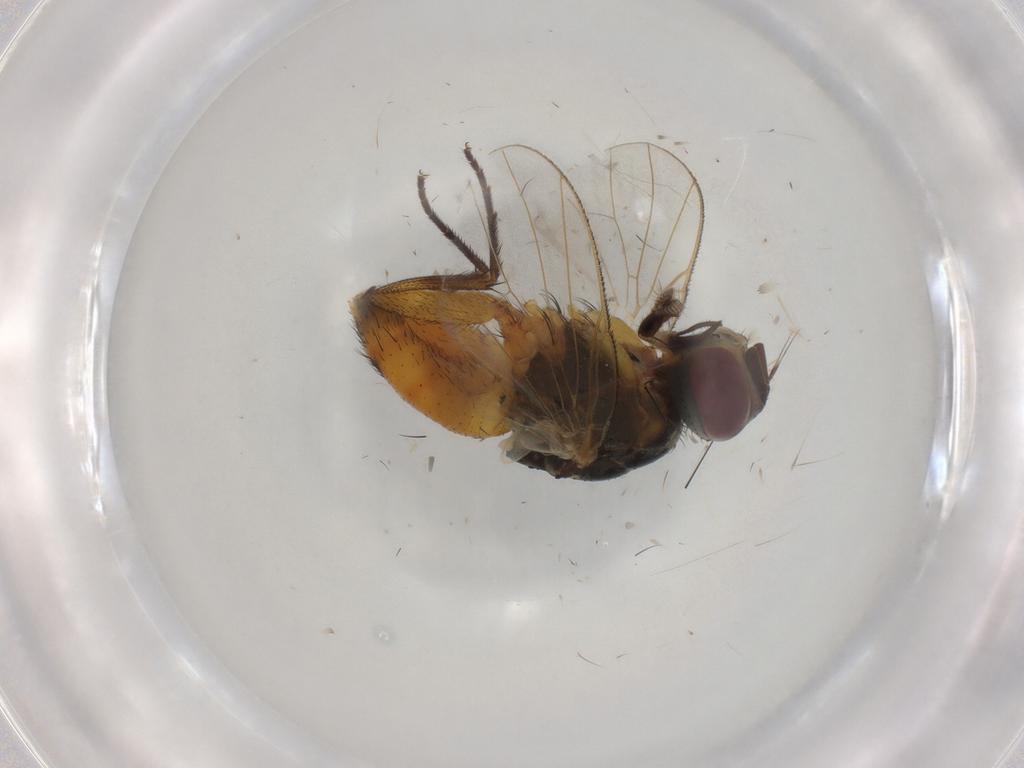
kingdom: Animalia
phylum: Arthropoda
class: Insecta
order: Diptera
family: Muscidae
